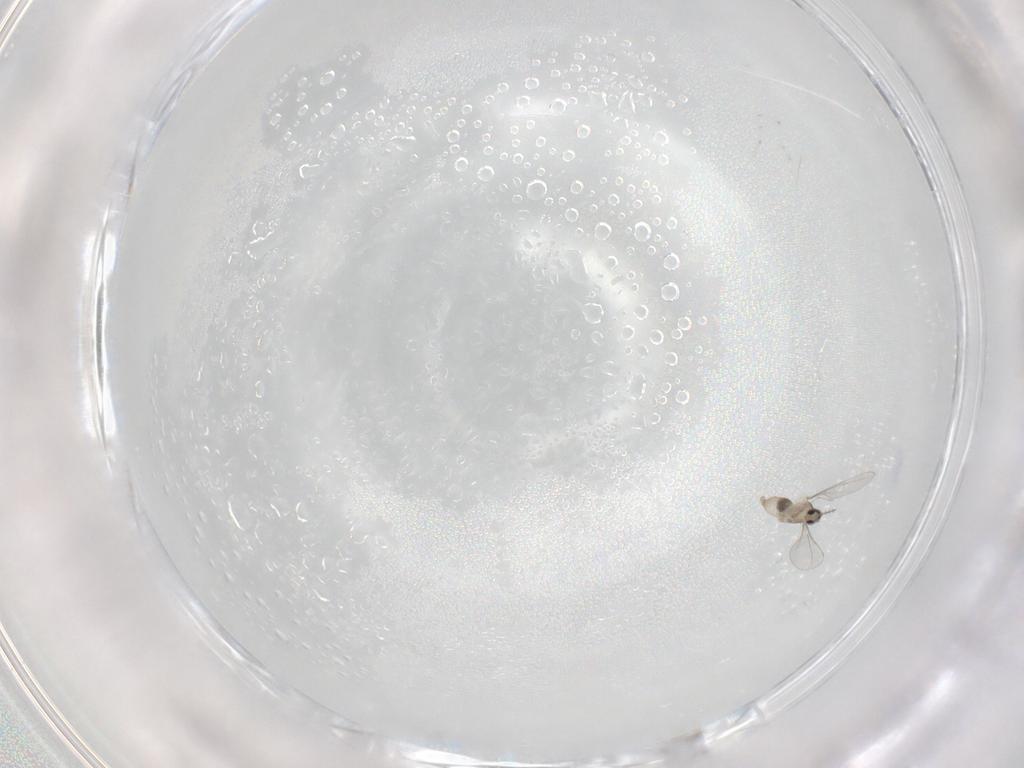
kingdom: Animalia
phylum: Arthropoda
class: Insecta
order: Diptera
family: Cecidomyiidae
